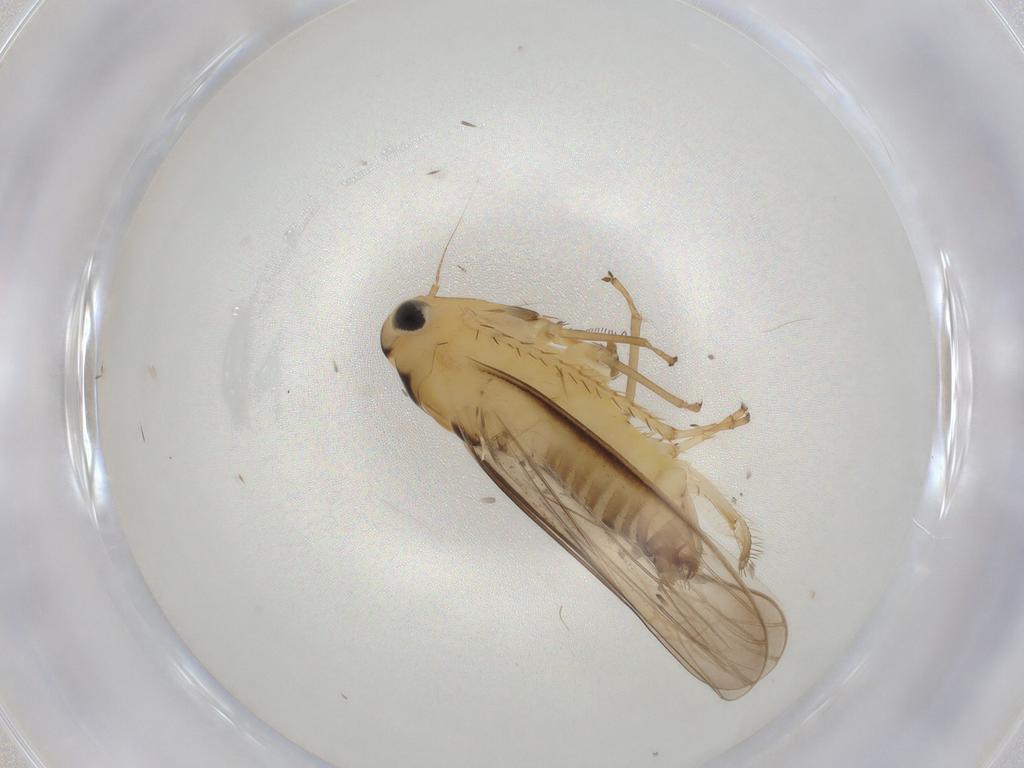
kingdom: Animalia
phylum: Arthropoda
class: Insecta
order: Hemiptera
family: Cicadellidae
